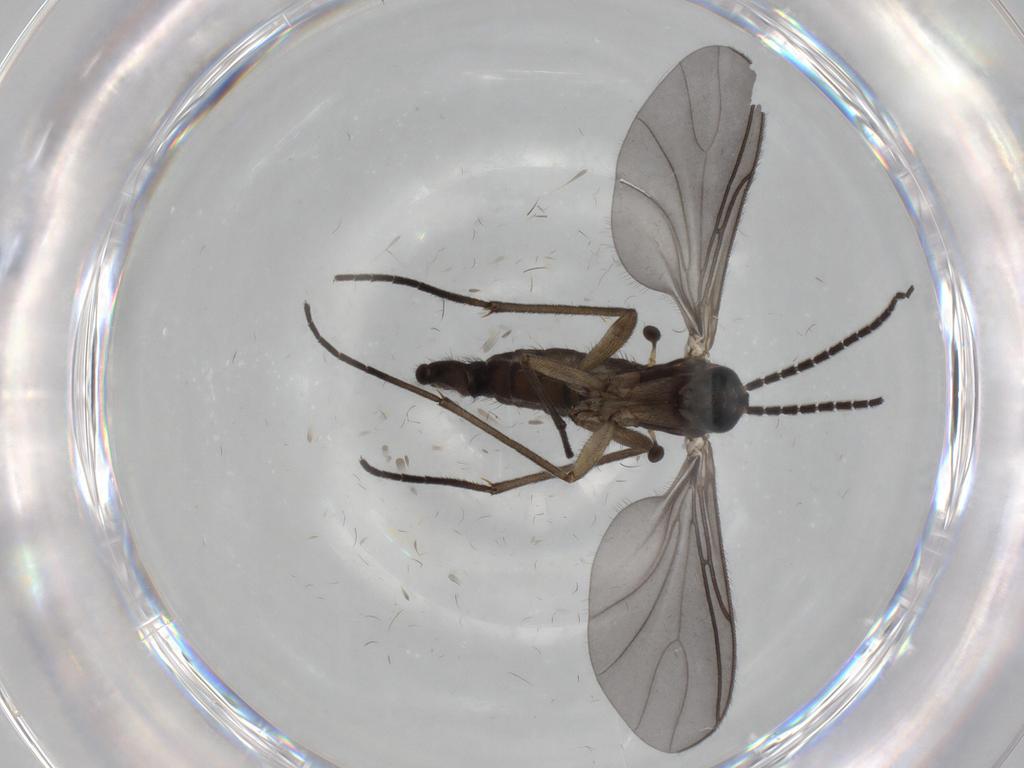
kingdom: Animalia
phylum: Arthropoda
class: Insecta
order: Diptera
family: Sciaridae
